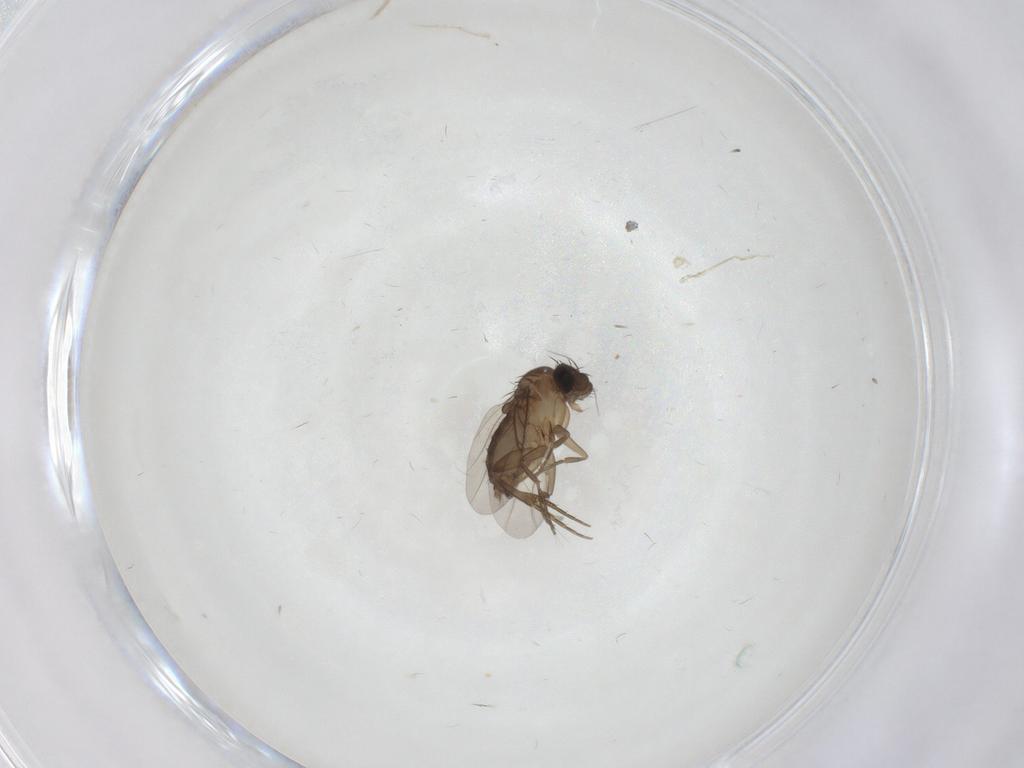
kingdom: Animalia
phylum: Arthropoda
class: Insecta
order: Diptera
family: Phoridae
